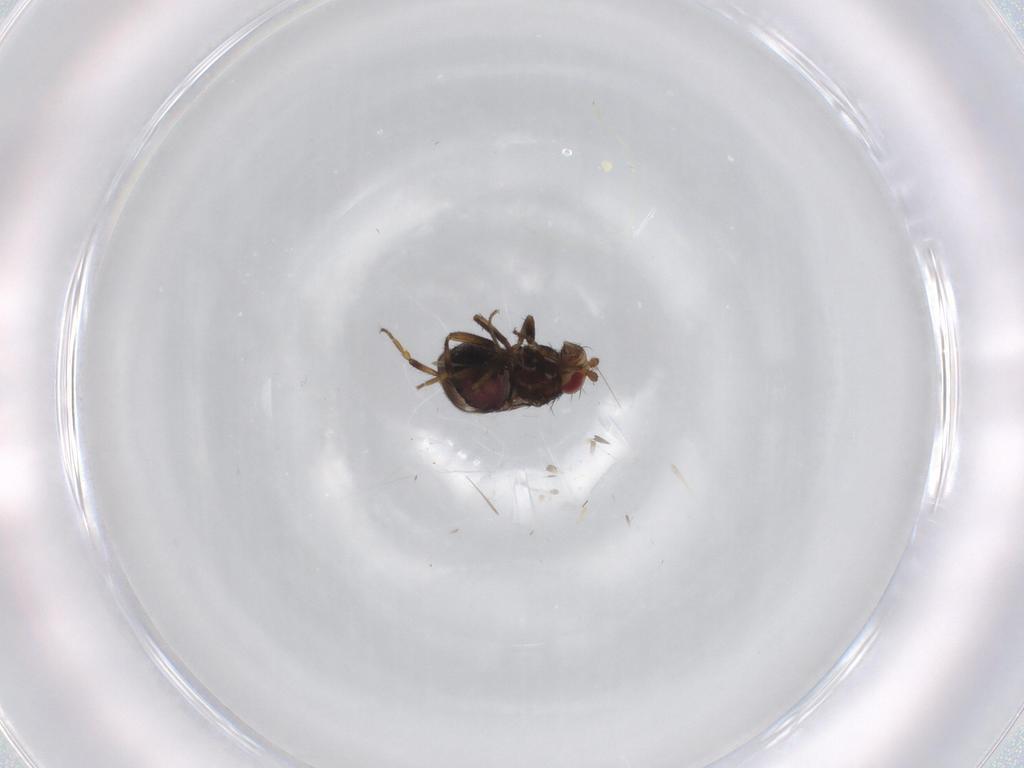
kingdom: Animalia
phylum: Arthropoda
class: Insecta
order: Diptera
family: Sphaeroceridae
